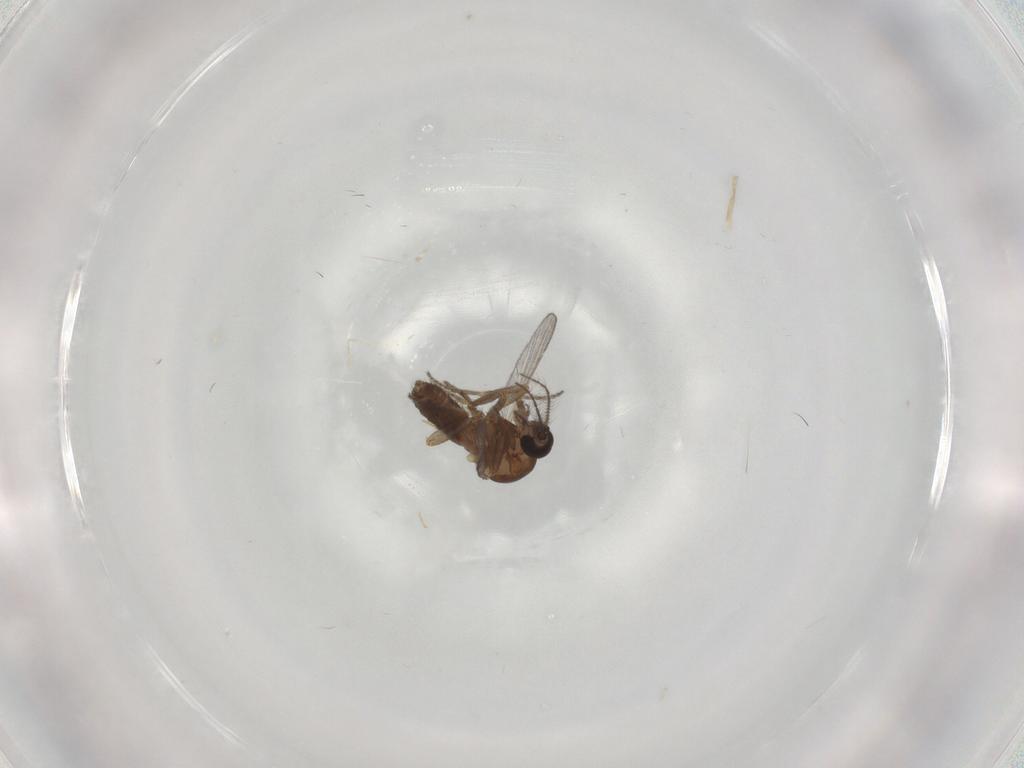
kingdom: Animalia
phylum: Arthropoda
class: Insecta
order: Diptera
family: Ceratopogonidae
